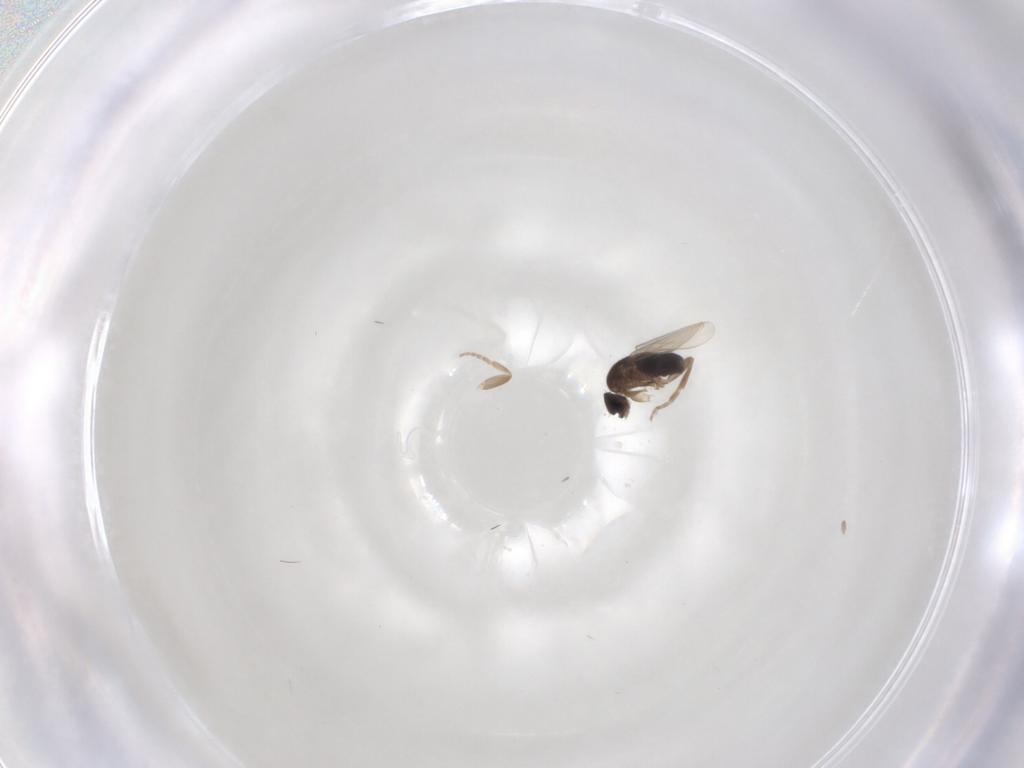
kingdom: Animalia
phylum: Arthropoda
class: Insecta
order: Diptera
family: Phoridae
